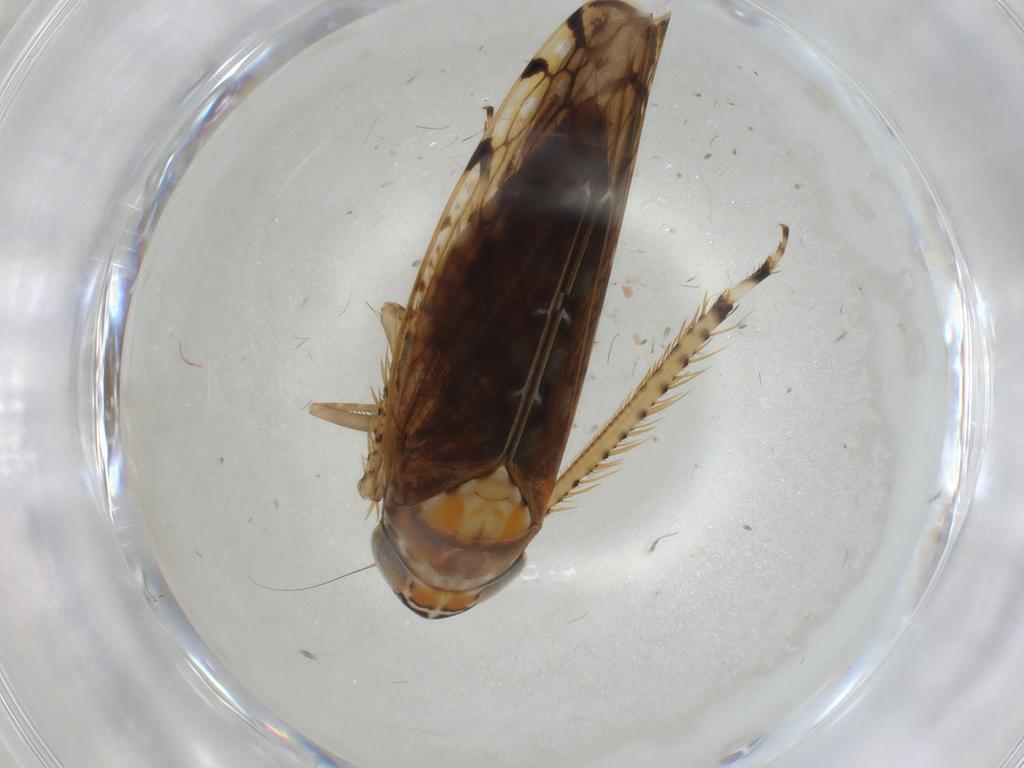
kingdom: Animalia
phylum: Arthropoda
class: Insecta
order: Hemiptera
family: Cicadellidae
